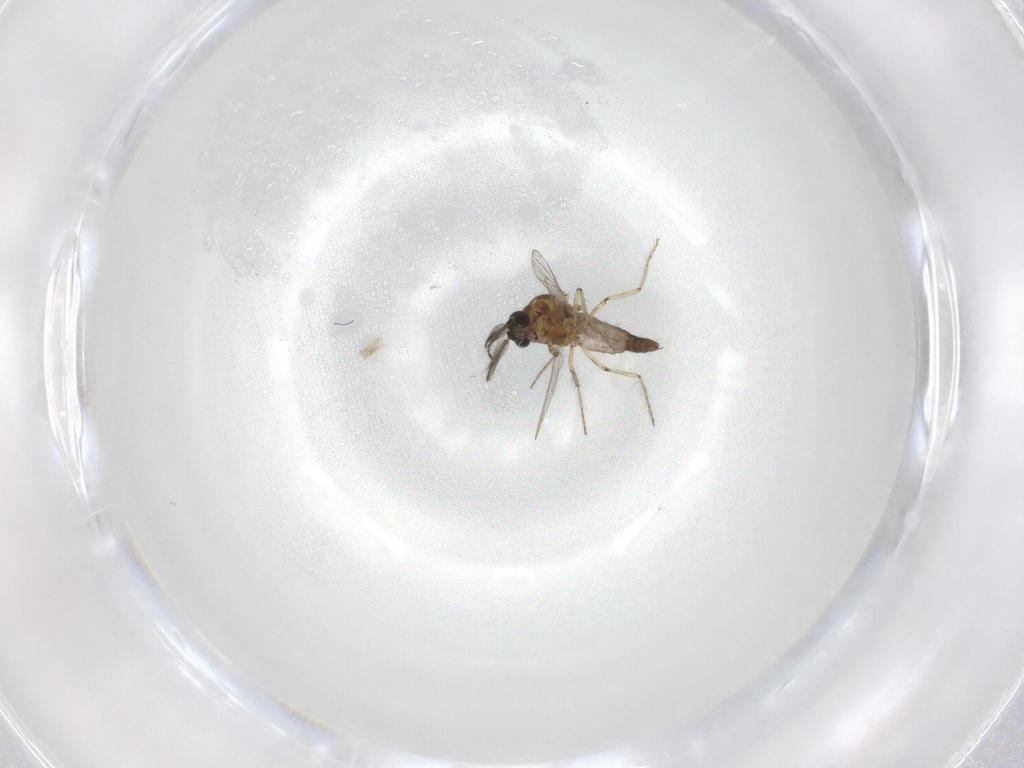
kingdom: Animalia
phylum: Arthropoda
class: Insecta
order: Diptera
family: Ceratopogonidae
